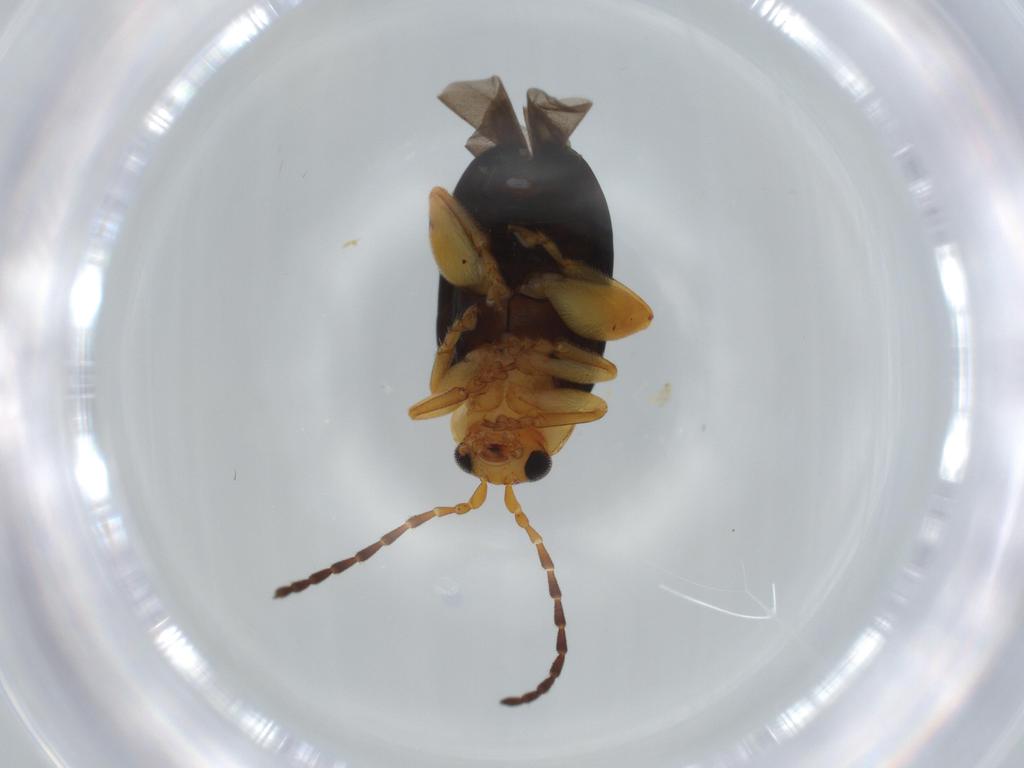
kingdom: Animalia
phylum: Arthropoda
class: Insecta
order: Coleoptera
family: Chrysomelidae
